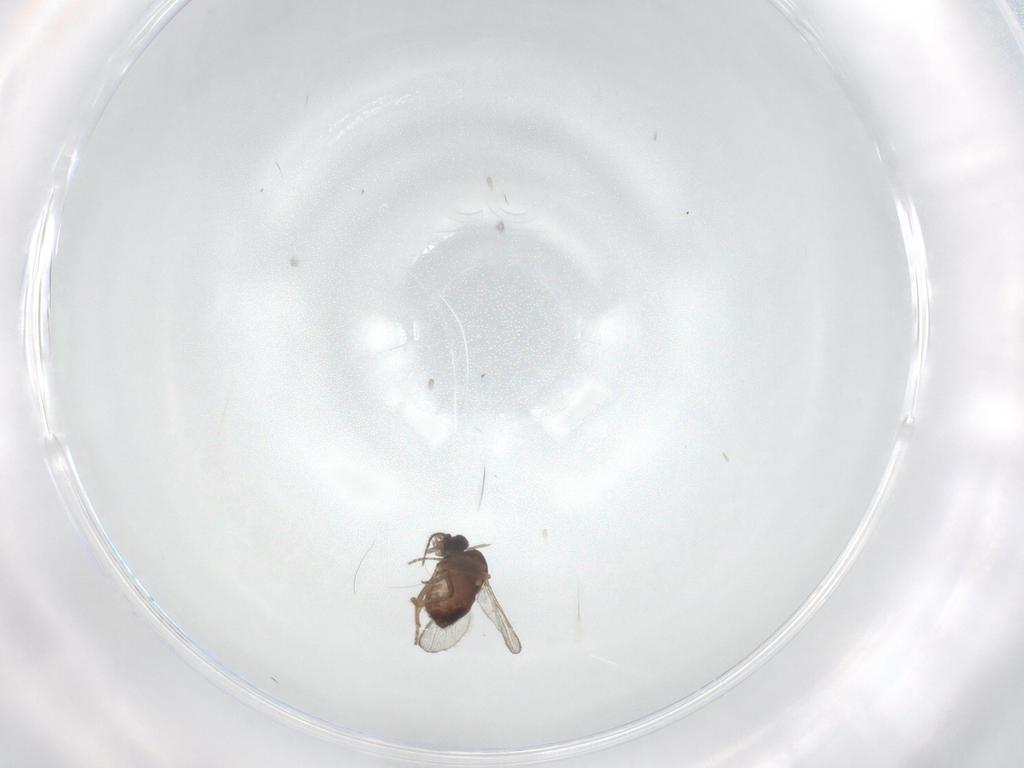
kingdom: Animalia
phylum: Arthropoda
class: Insecta
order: Diptera
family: Ceratopogonidae
